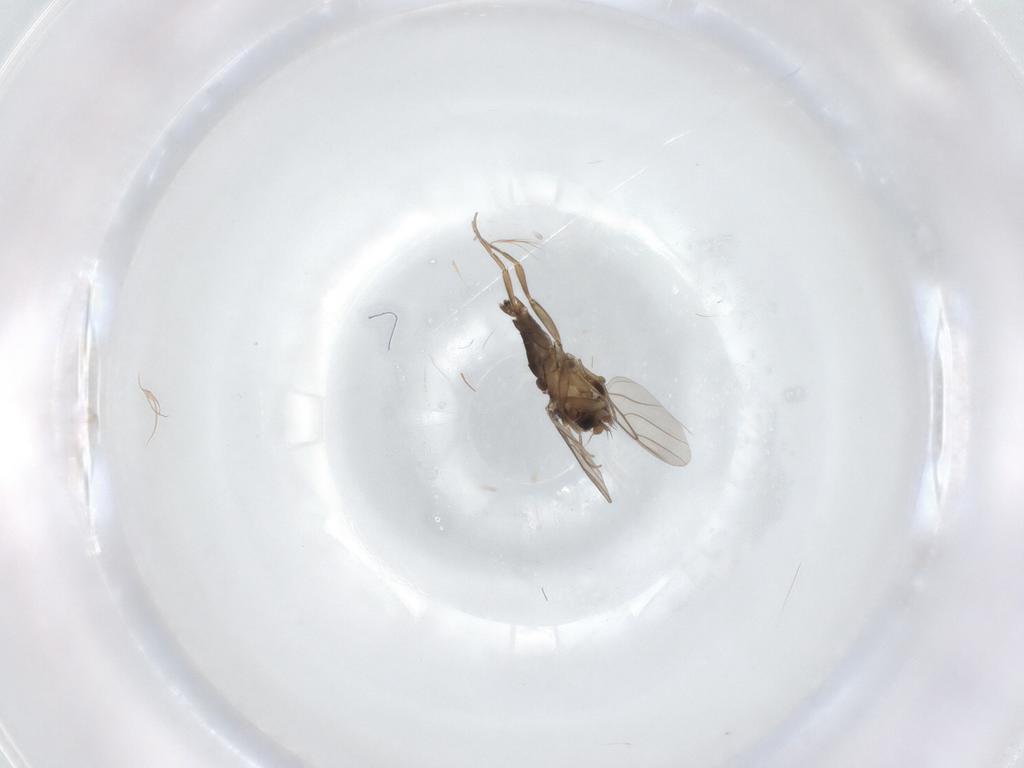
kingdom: Animalia
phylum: Arthropoda
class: Insecta
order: Diptera
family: Phoridae
